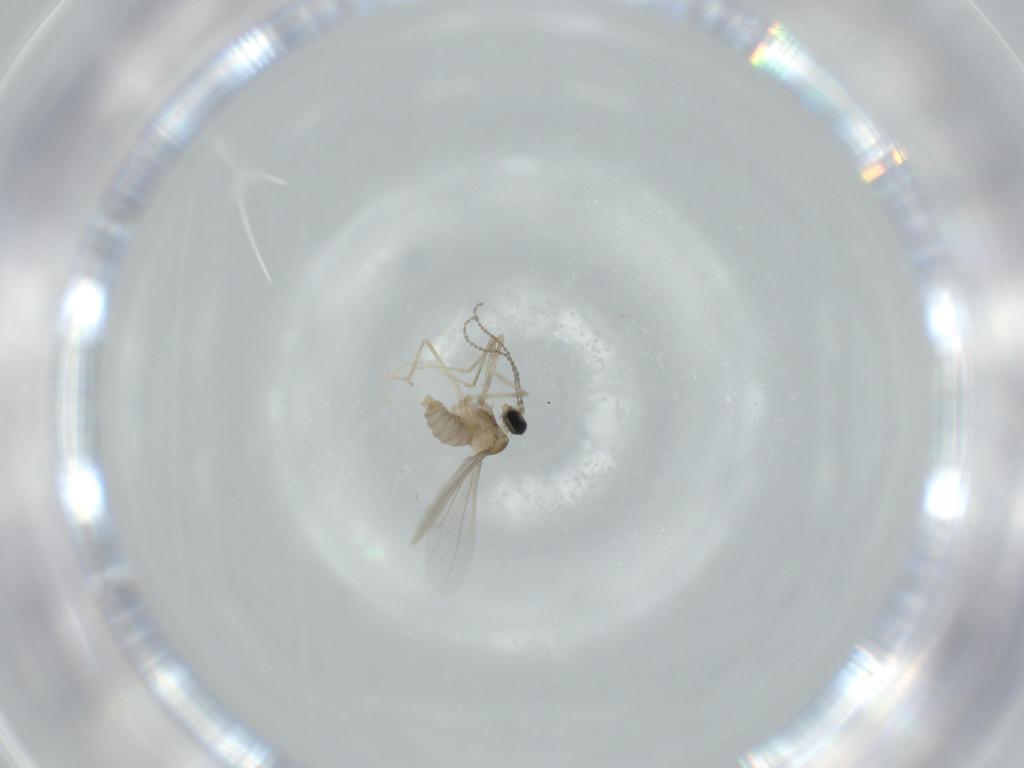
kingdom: Animalia
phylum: Arthropoda
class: Insecta
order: Diptera
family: Cecidomyiidae
